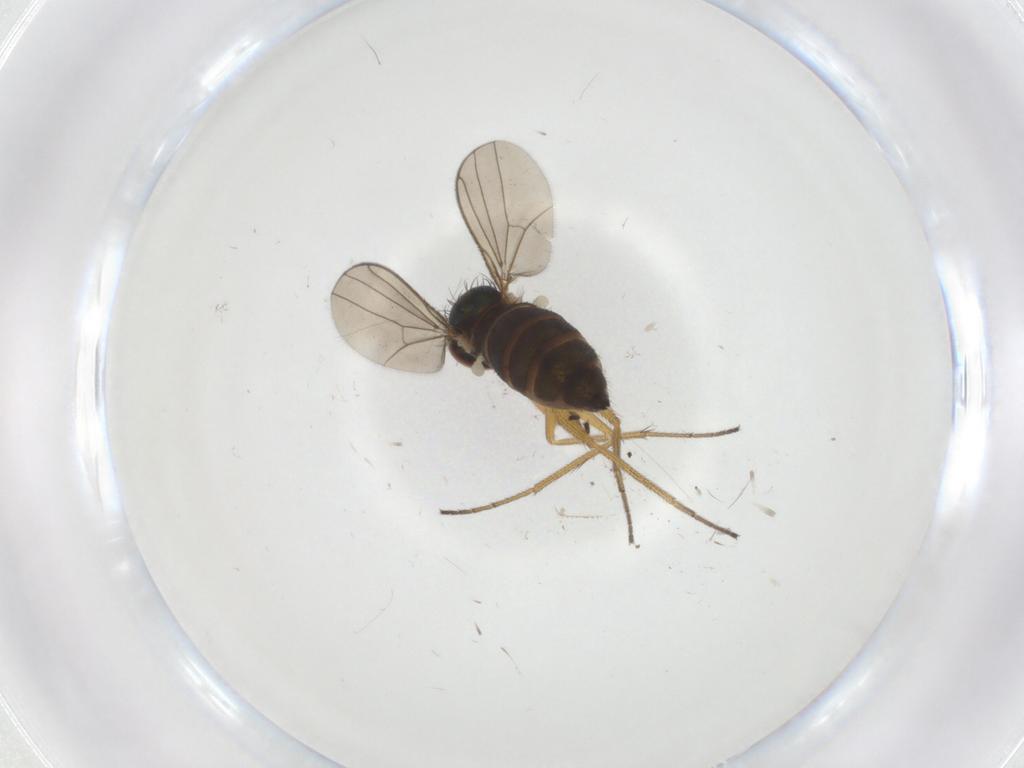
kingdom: Animalia
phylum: Arthropoda
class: Insecta
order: Diptera
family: Dolichopodidae
